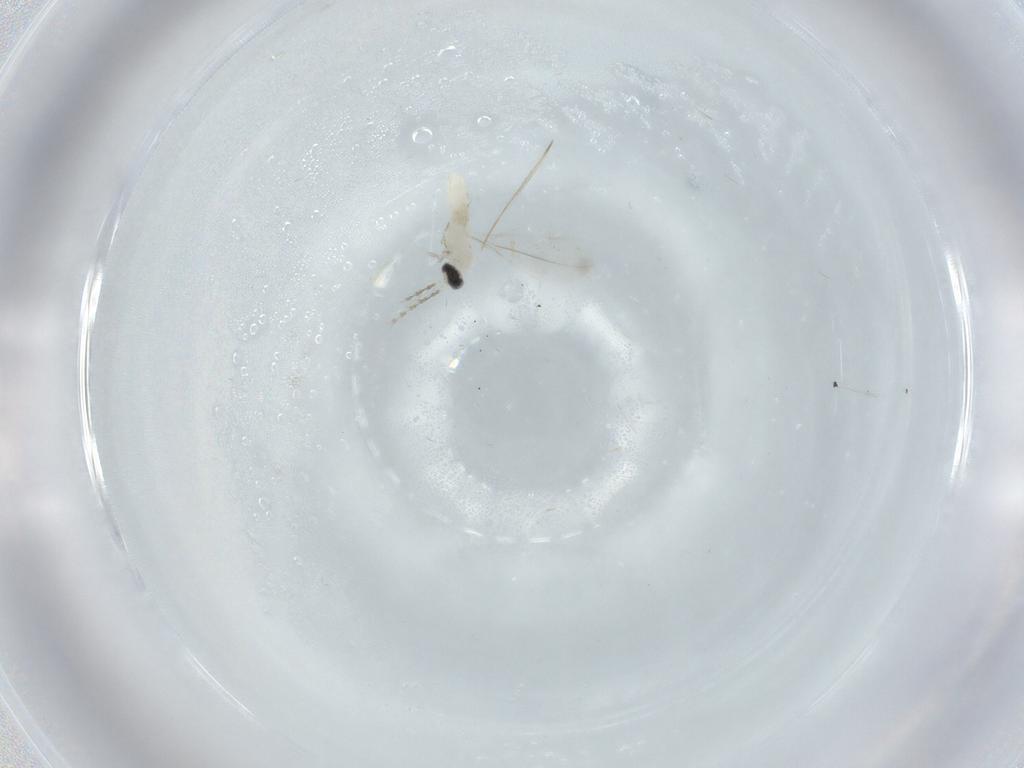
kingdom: Animalia
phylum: Arthropoda
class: Insecta
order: Diptera
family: Cecidomyiidae
